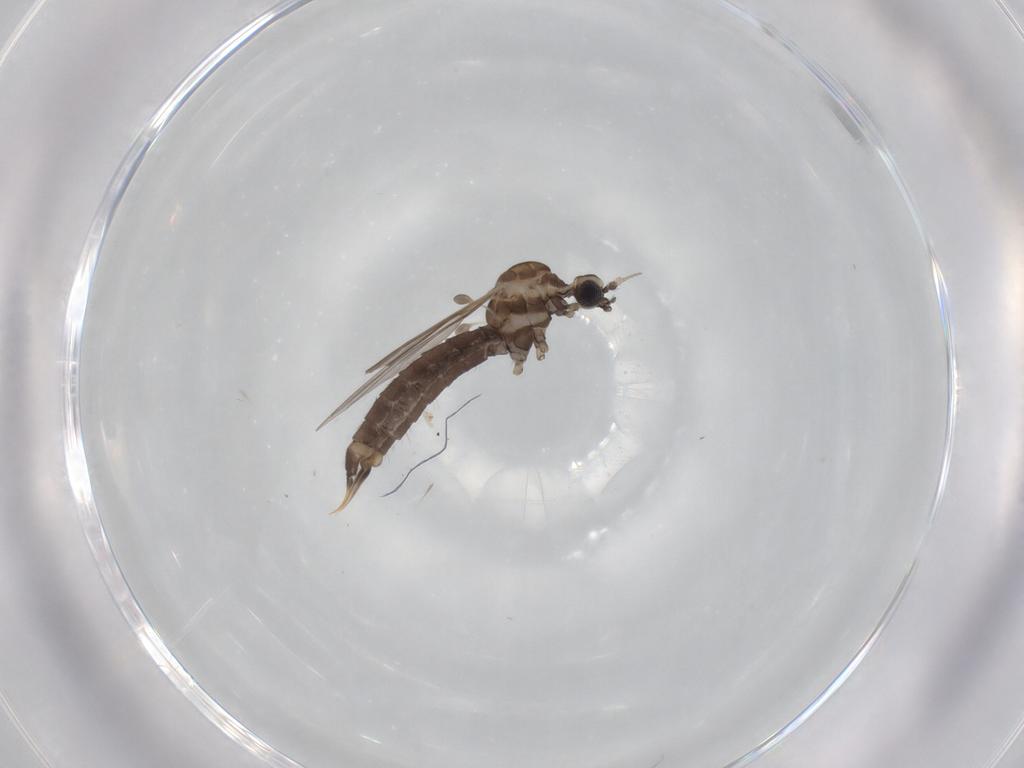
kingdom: Animalia
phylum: Arthropoda
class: Insecta
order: Diptera
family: Limoniidae
